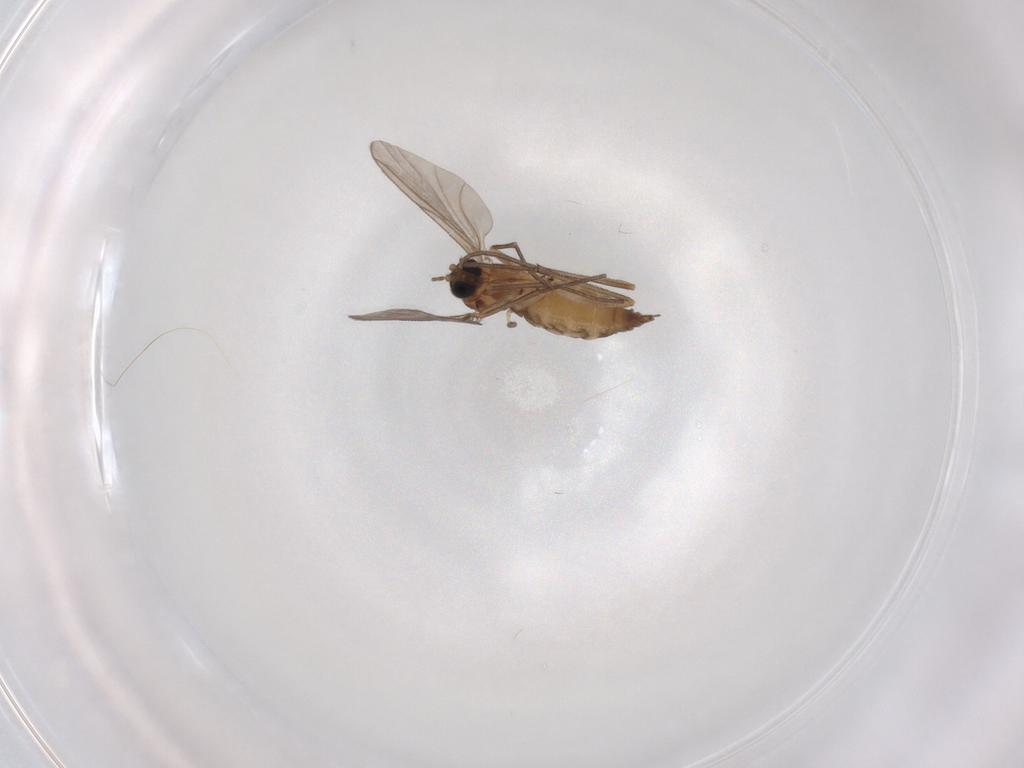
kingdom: Animalia
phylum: Arthropoda
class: Insecta
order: Diptera
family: Sciaridae
